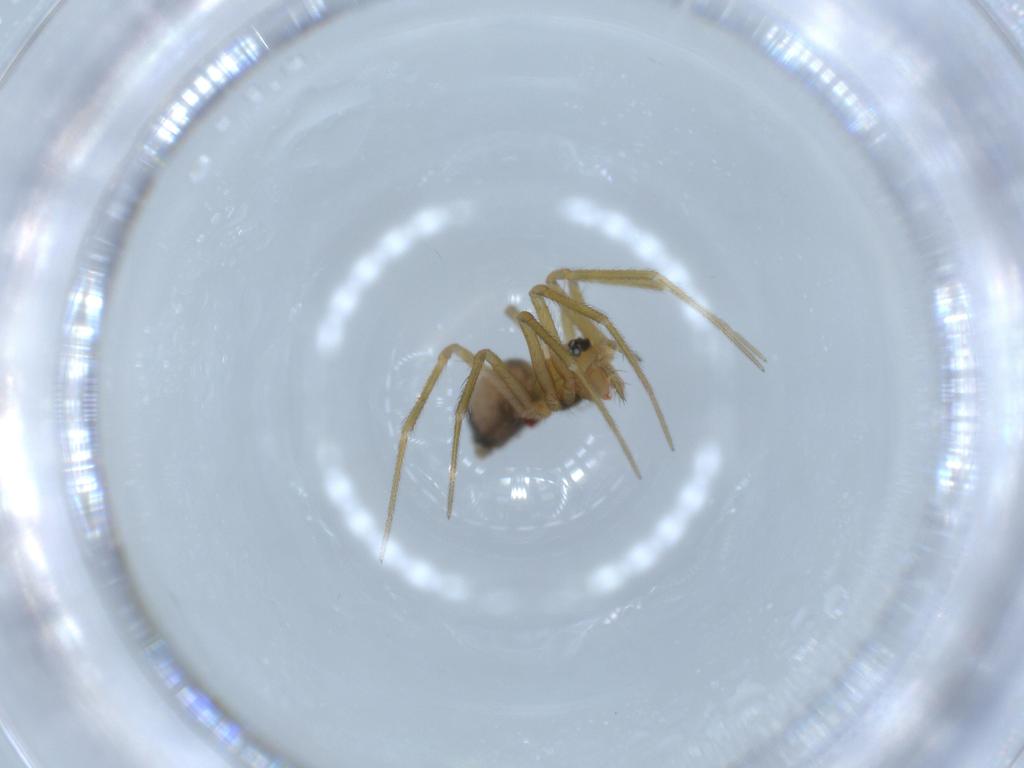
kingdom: Animalia
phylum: Arthropoda
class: Arachnida
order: Araneae
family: Linyphiidae
